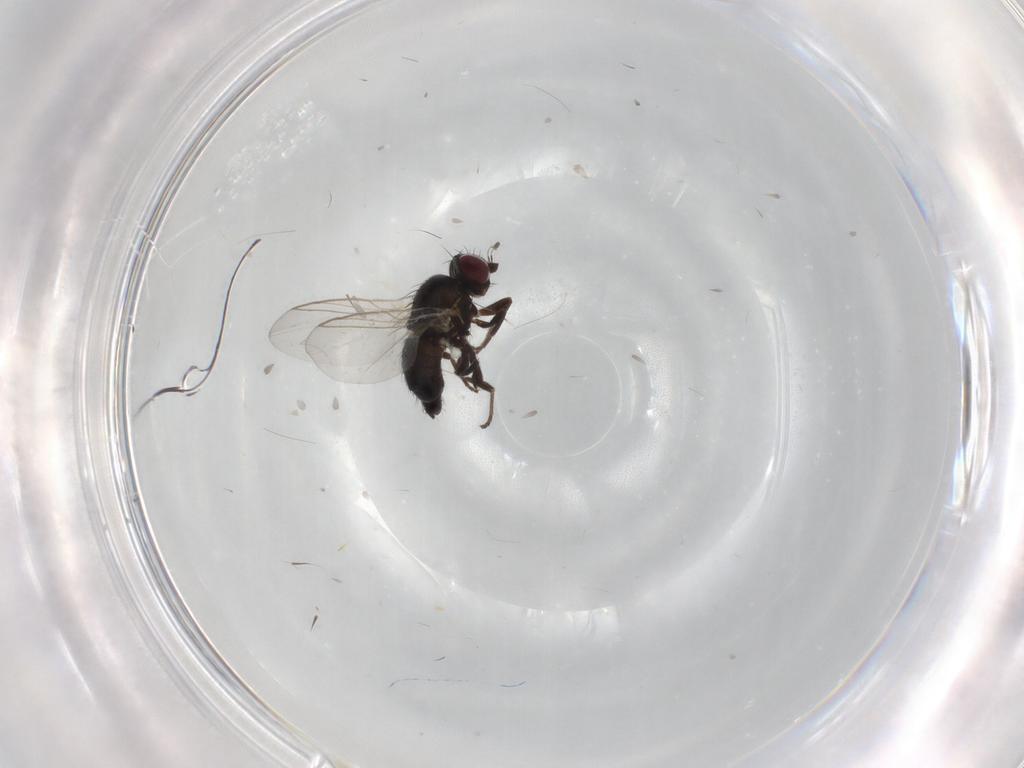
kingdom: Animalia
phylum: Arthropoda
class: Insecta
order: Diptera
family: Agromyzidae
